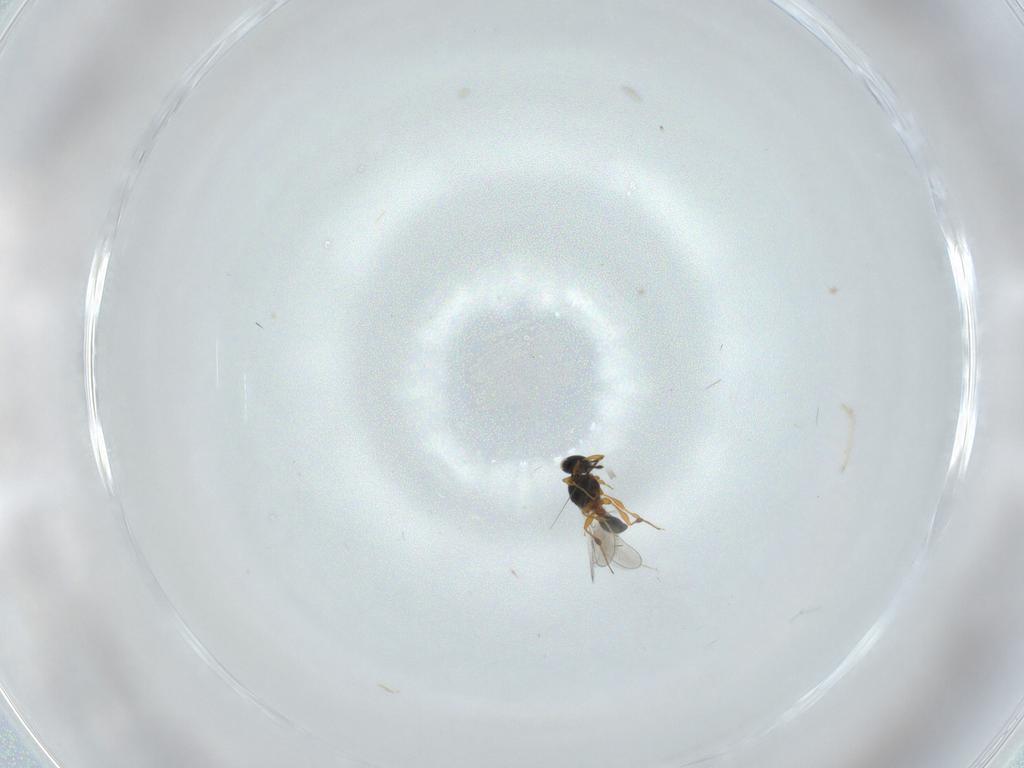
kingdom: Animalia
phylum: Arthropoda
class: Insecta
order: Hymenoptera
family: Platygastridae
